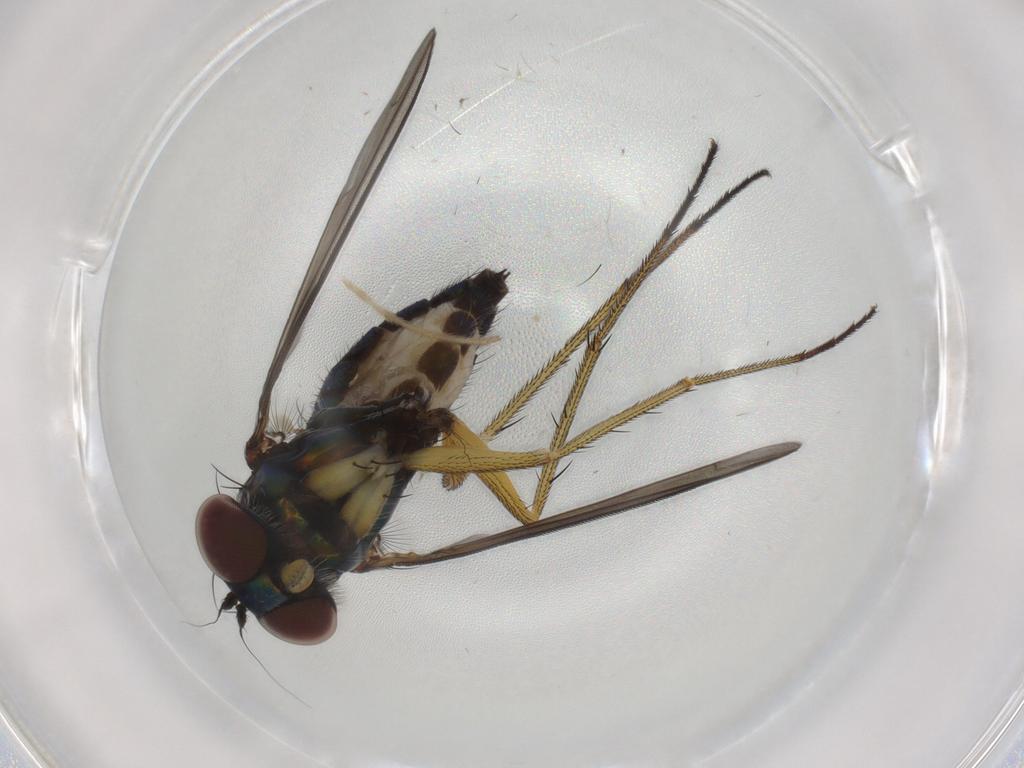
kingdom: Animalia
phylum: Arthropoda
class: Insecta
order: Diptera
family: Dolichopodidae
